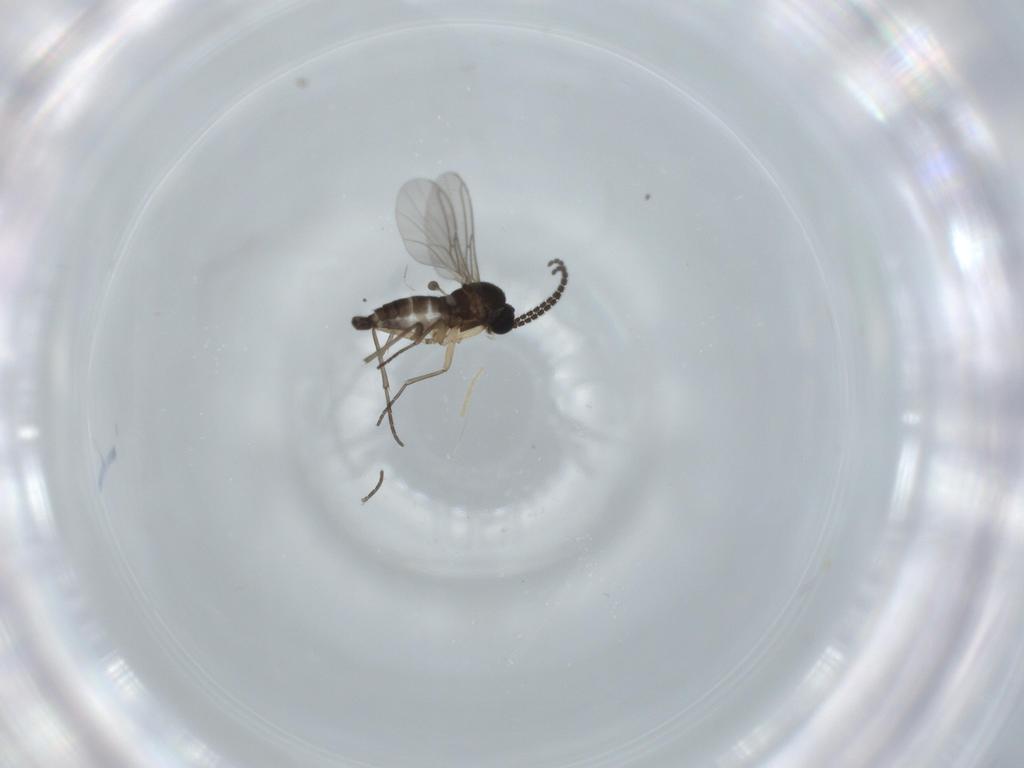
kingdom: Animalia
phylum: Arthropoda
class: Insecta
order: Diptera
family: Sciaridae
